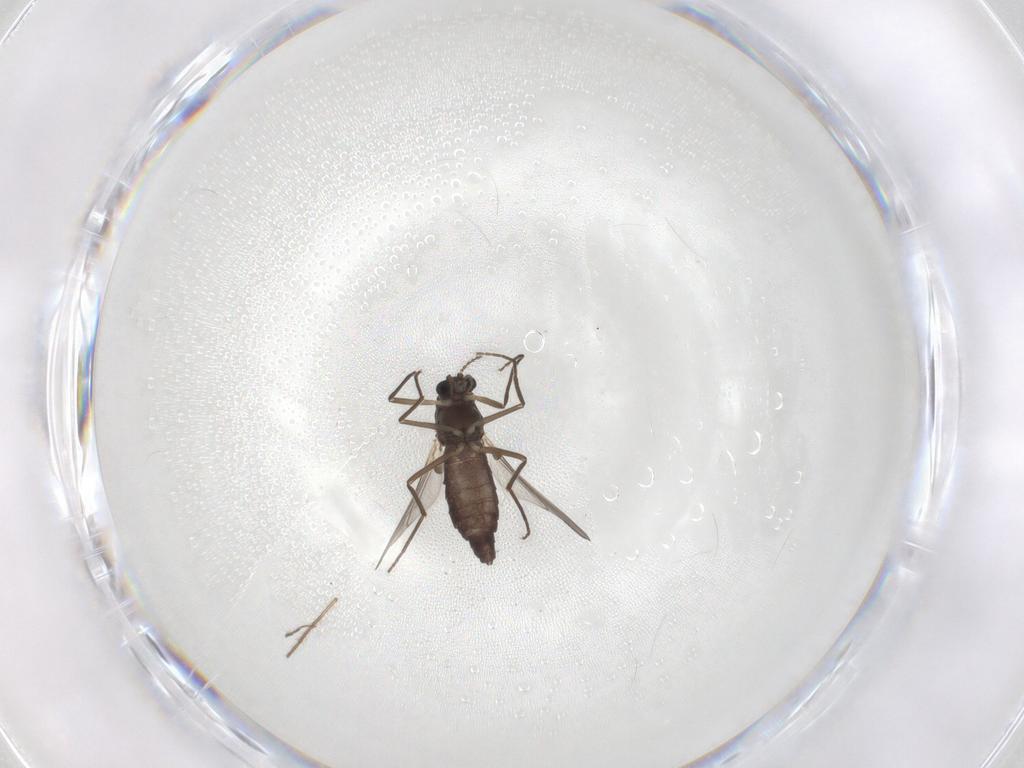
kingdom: Animalia
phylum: Arthropoda
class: Insecta
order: Diptera
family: Chironomidae
